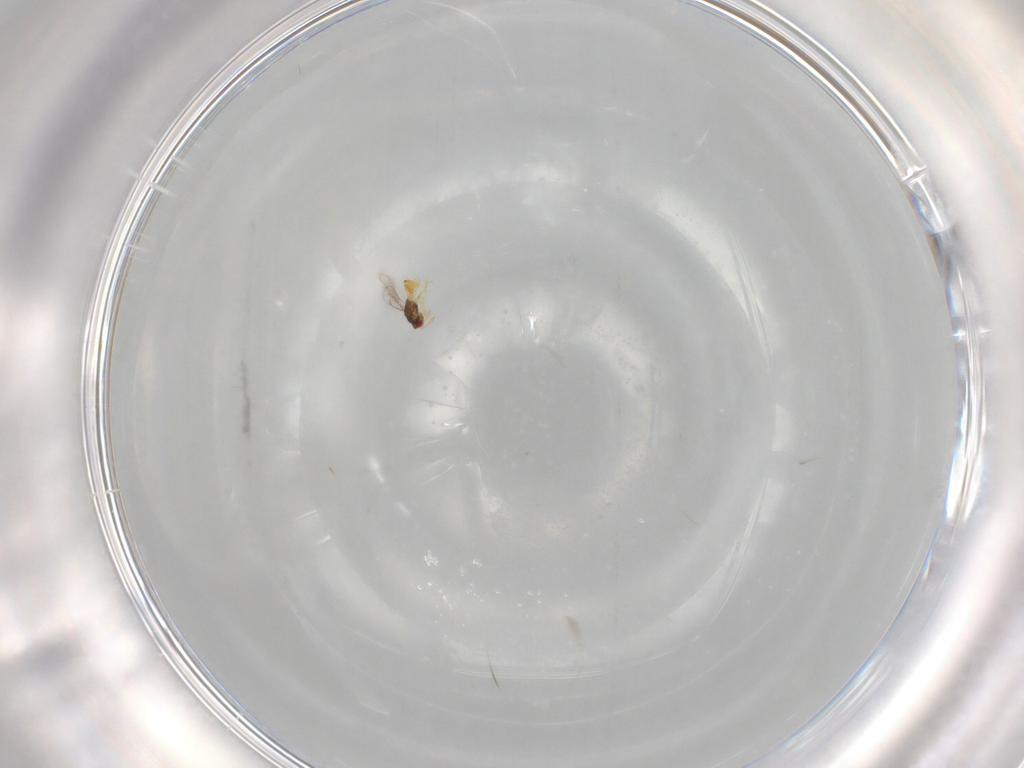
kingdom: Animalia
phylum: Arthropoda
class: Insecta
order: Hymenoptera
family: Eulophidae
